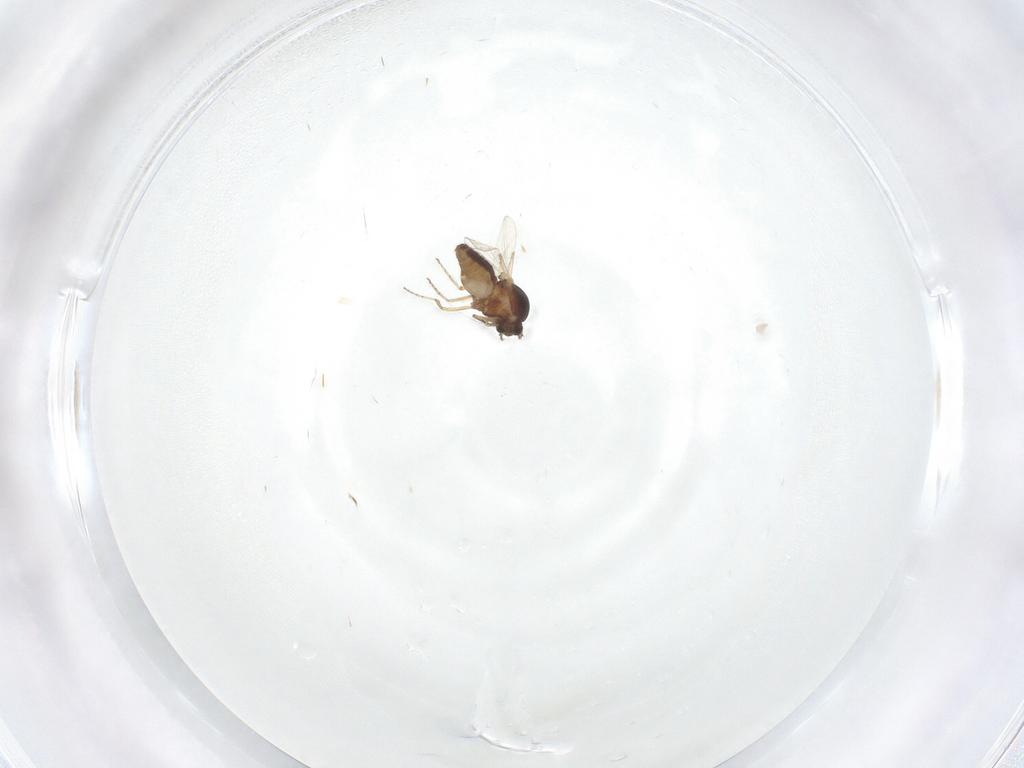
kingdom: Animalia
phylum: Arthropoda
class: Insecta
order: Diptera
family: Ceratopogonidae
